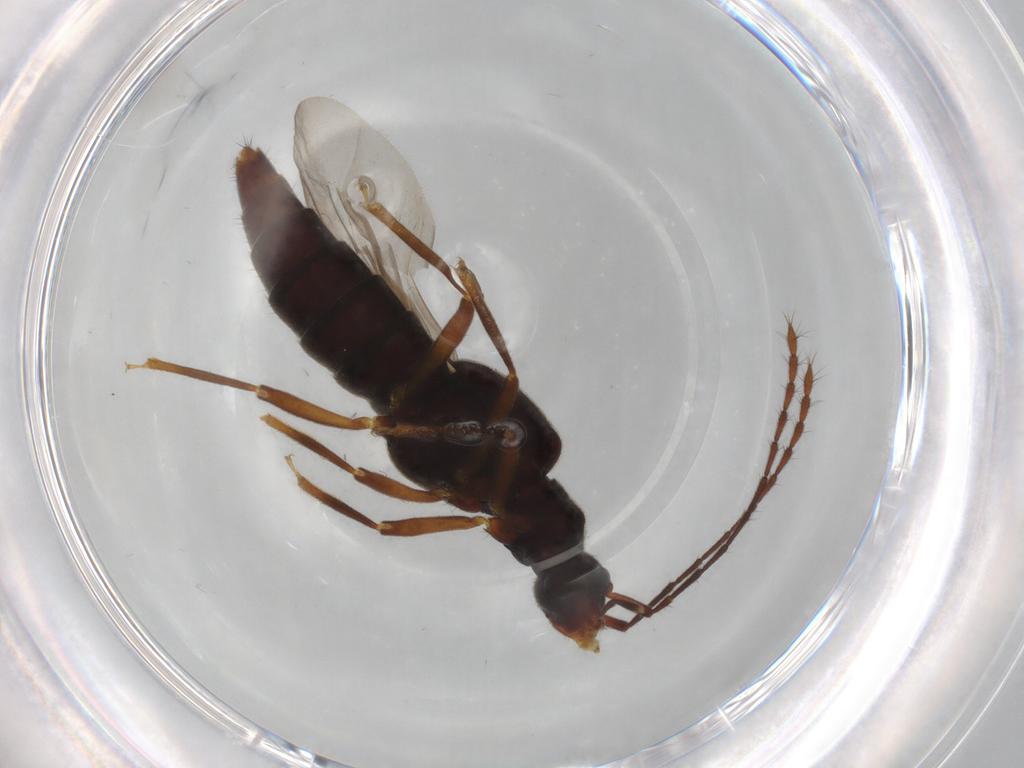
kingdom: Animalia
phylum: Arthropoda
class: Insecta
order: Coleoptera
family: Chrysomelidae
